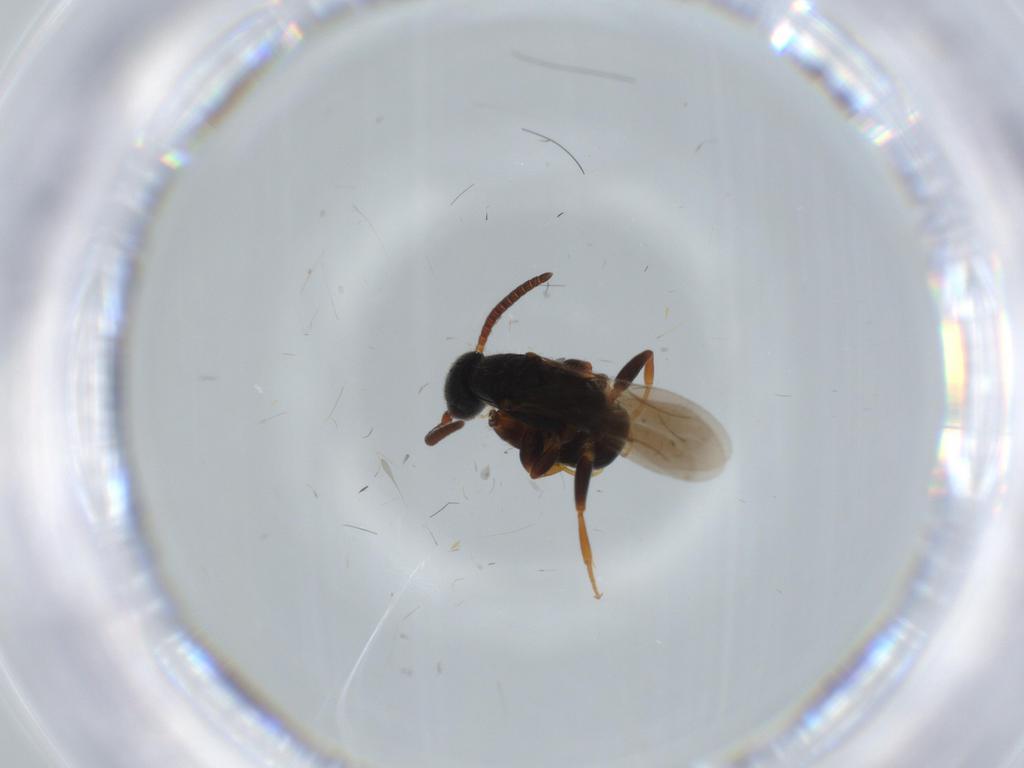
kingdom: Animalia
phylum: Arthropoda
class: Insecta
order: Hymenoptera
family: Bethylidae
